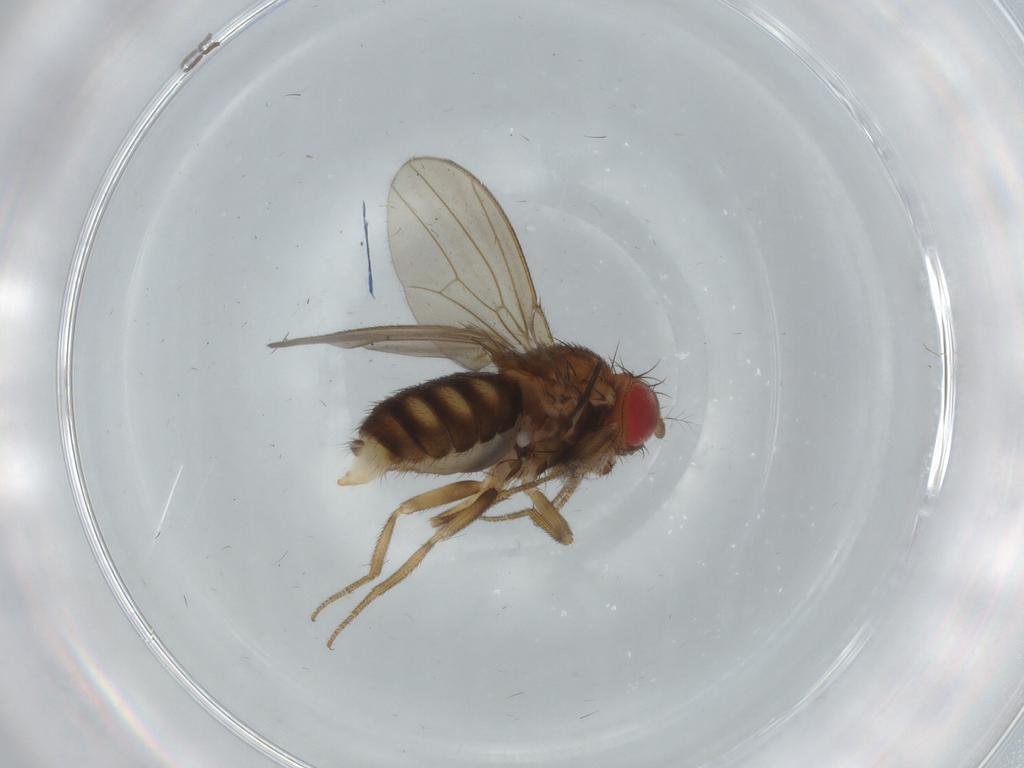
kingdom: Animalia
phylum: Arthropoda
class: Insecta
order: Diptera
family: Drosophilidae
